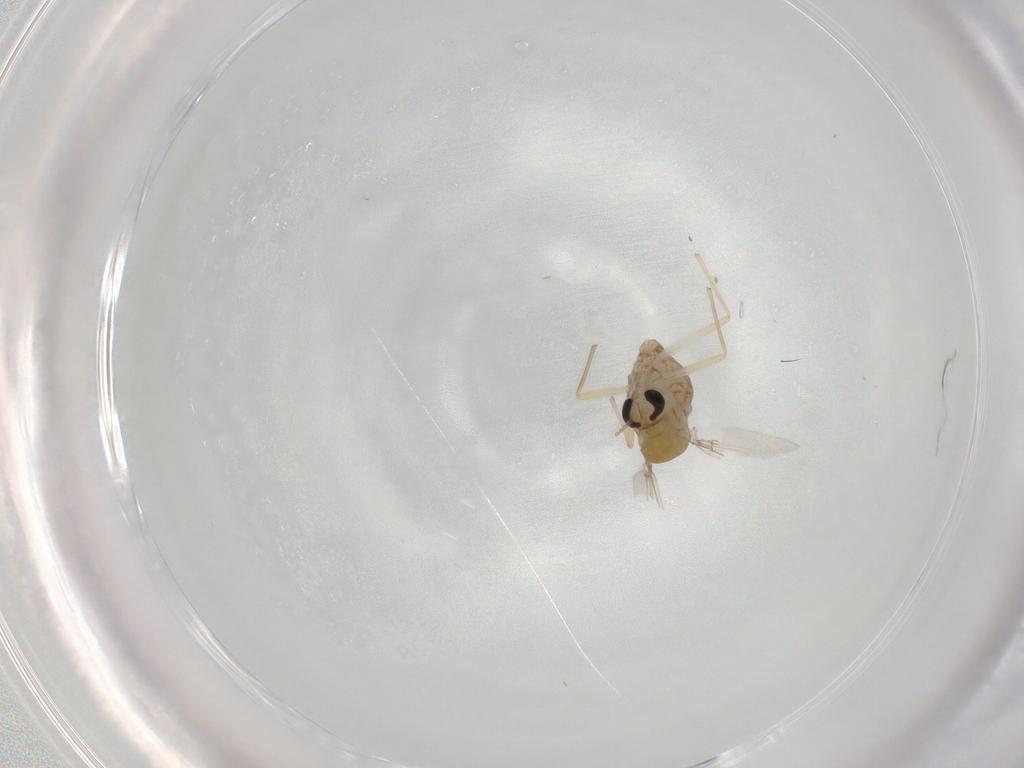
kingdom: Animalia
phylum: Arthropoda
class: Insecta
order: Diptera
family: Chironomidae
